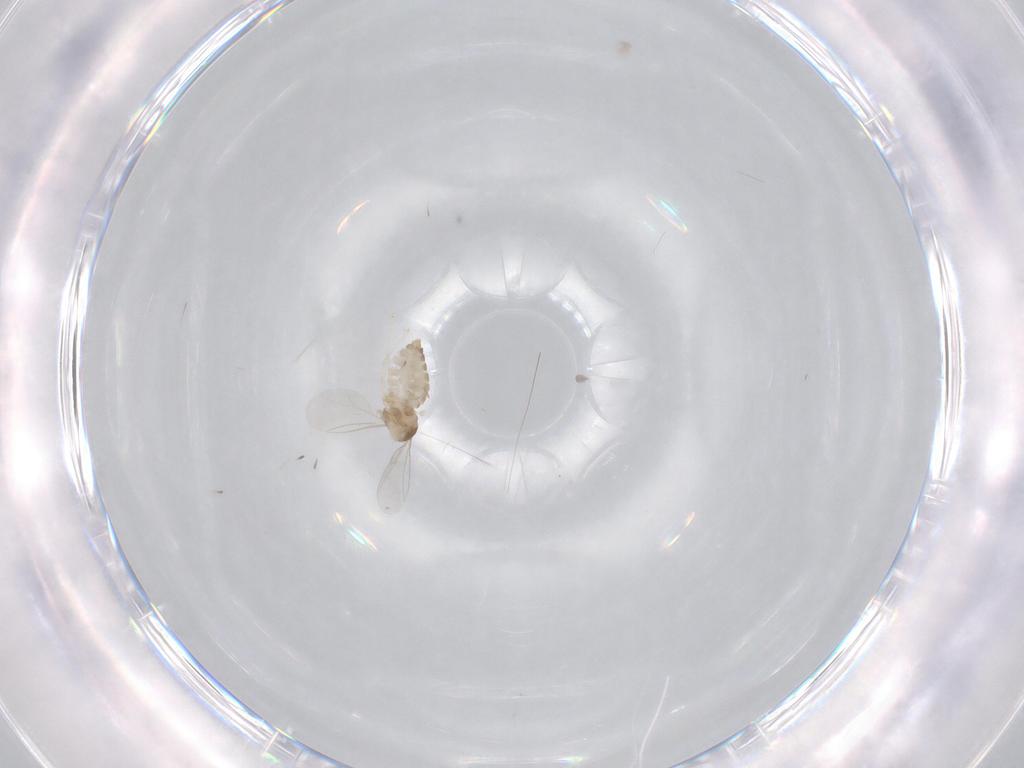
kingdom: Animalia
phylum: Arthropoda
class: Insecta
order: Diptera
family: Cecidomyiidae
